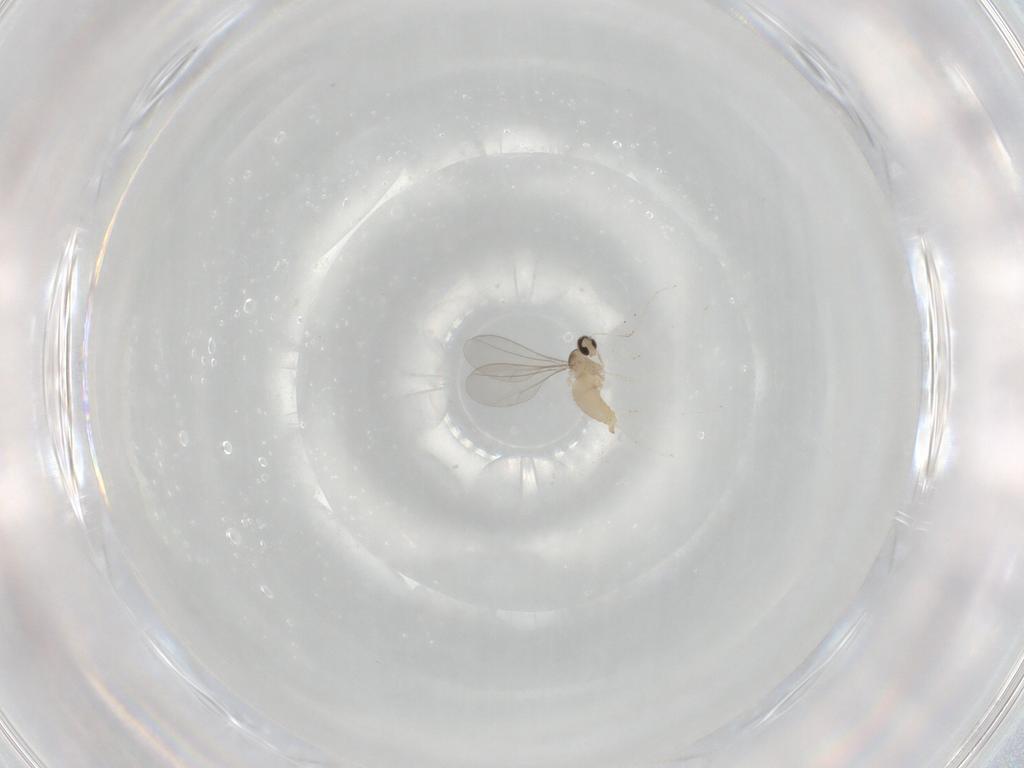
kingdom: Animalia
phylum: Arthropoda
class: Insecta
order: Diptera
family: Cecidomyiidae
